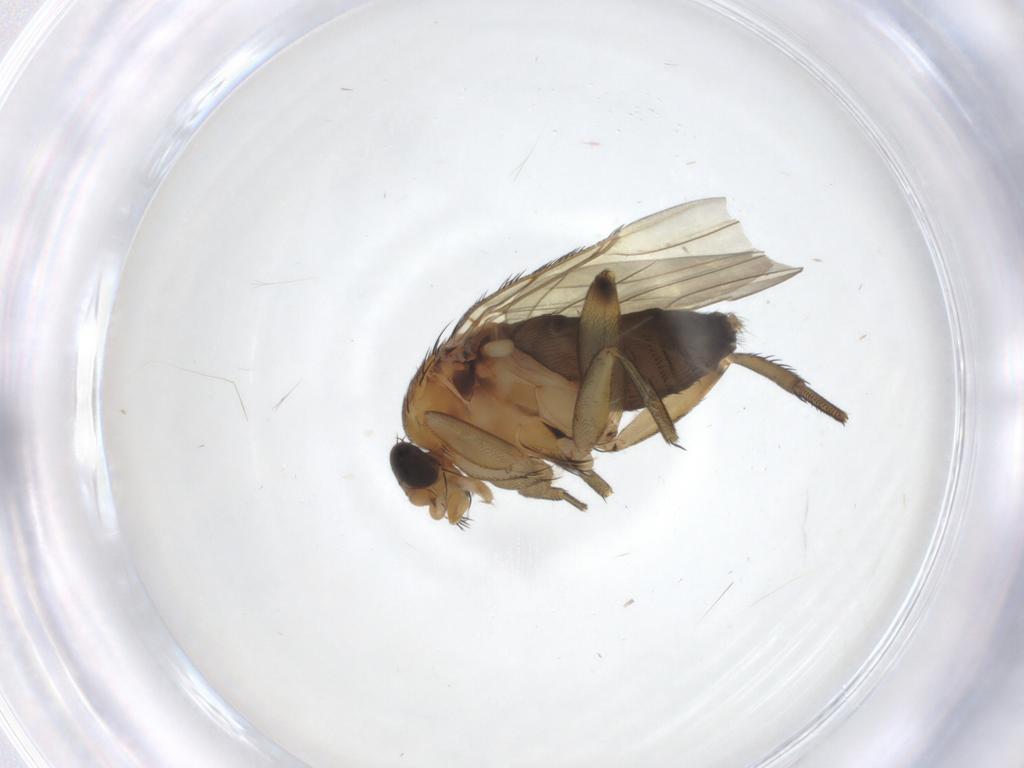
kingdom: Animalia
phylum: Arthropoda
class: Insecta
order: Diptera
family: Phoridae
